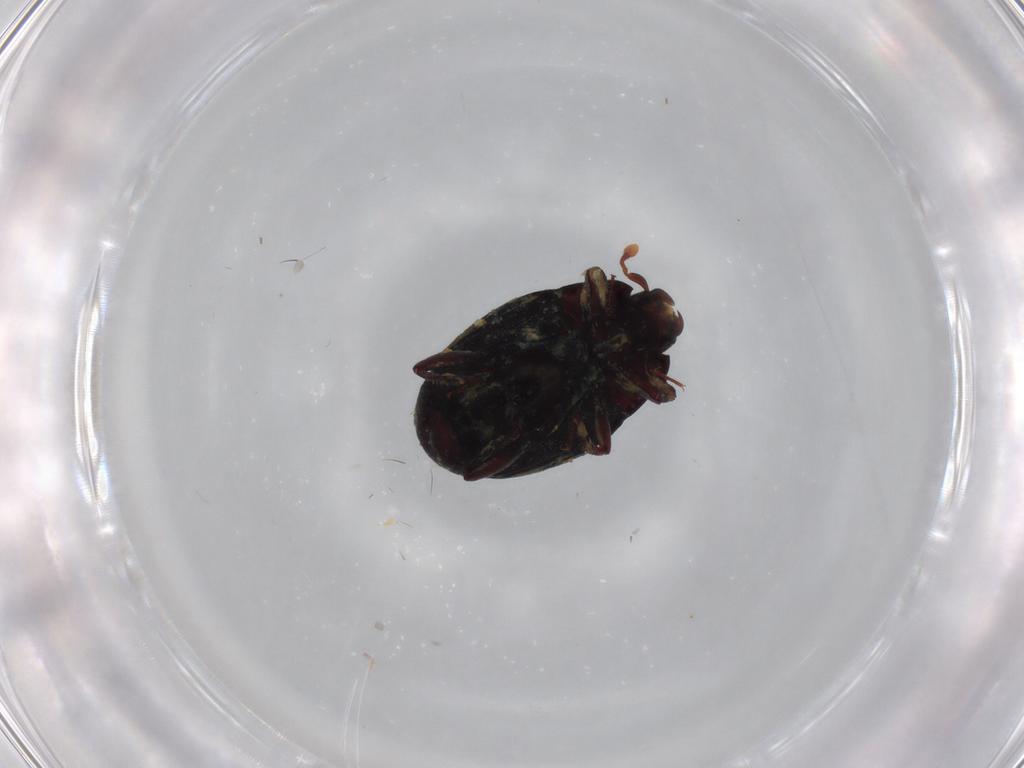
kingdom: Animalia
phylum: Arthropoda
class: Insecta
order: Coleoptera
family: Histeridae
